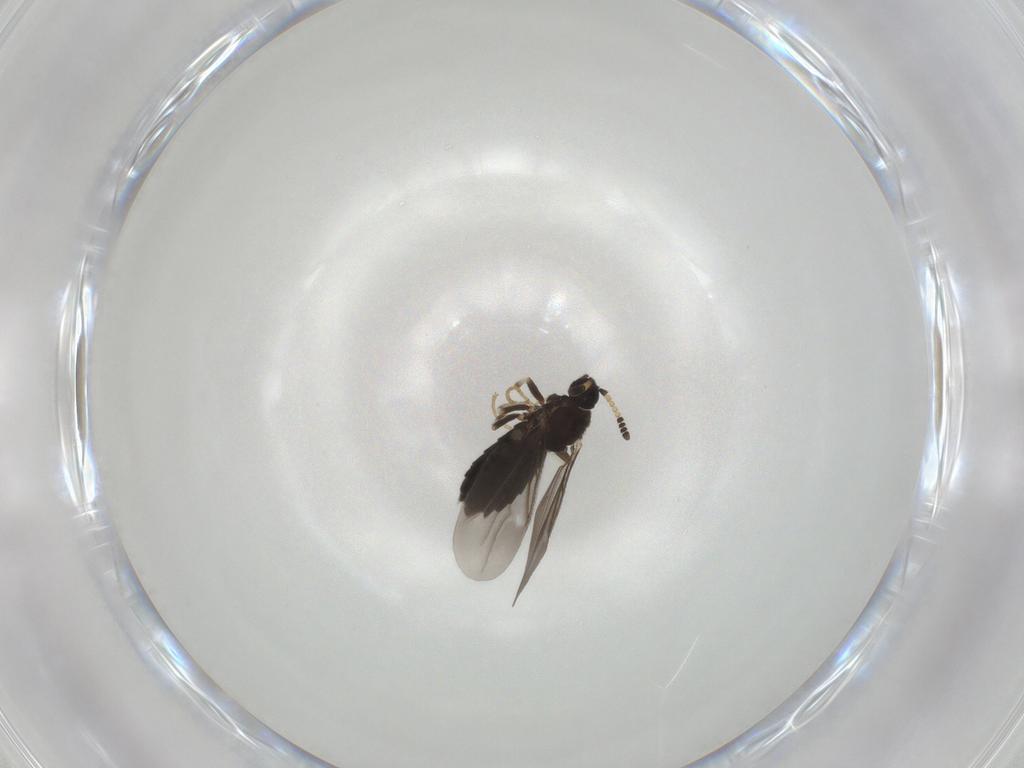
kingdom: Animalia
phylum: Arthropoda
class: Insecta
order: Diptera
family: Scatopsidae
